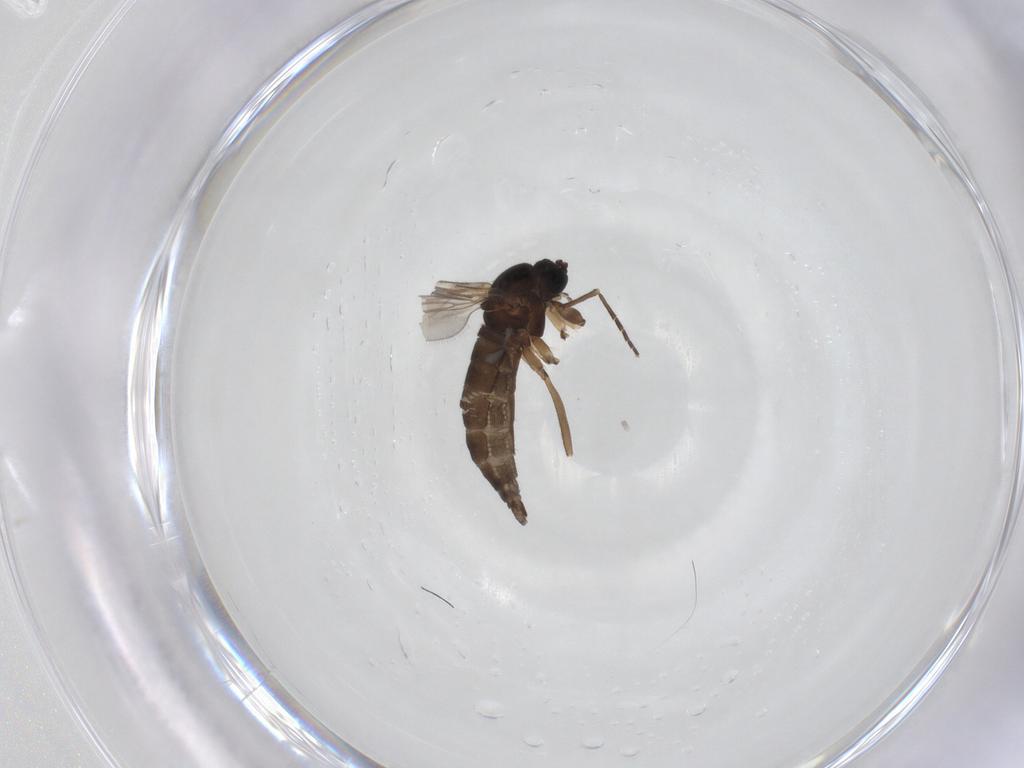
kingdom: Animalia
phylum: Arthropoda
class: Insecta
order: Diptera
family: Sciaridae
